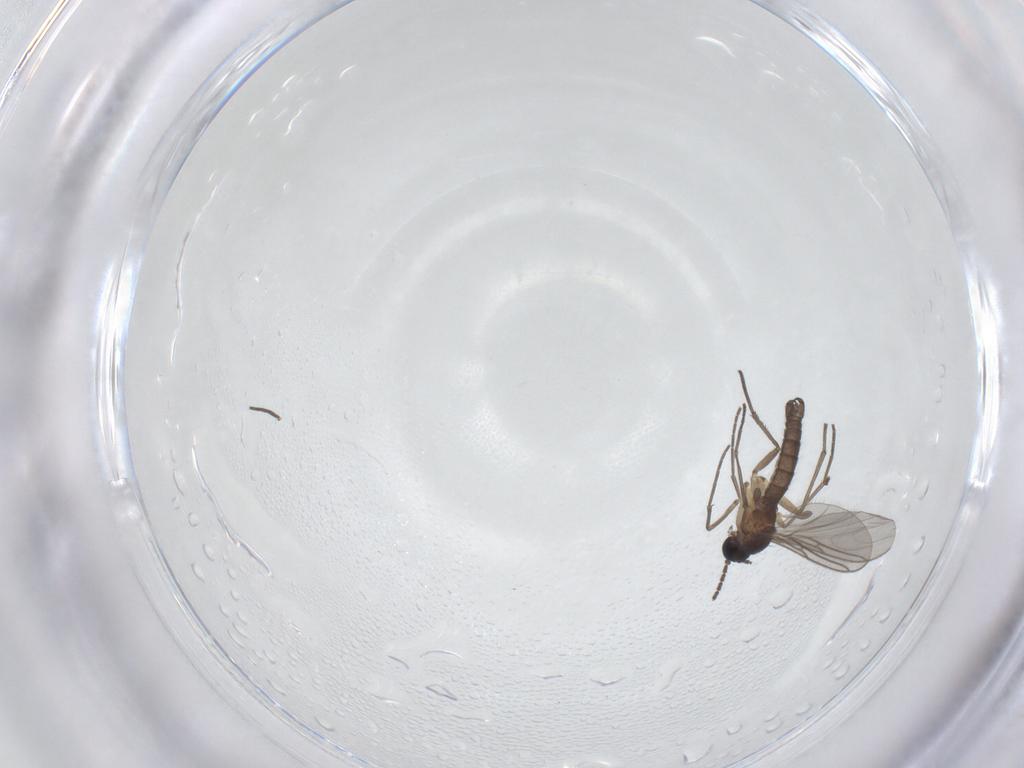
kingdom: Animalia
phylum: Arthropoda
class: Insecta
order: Diptera
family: Sciaridae
